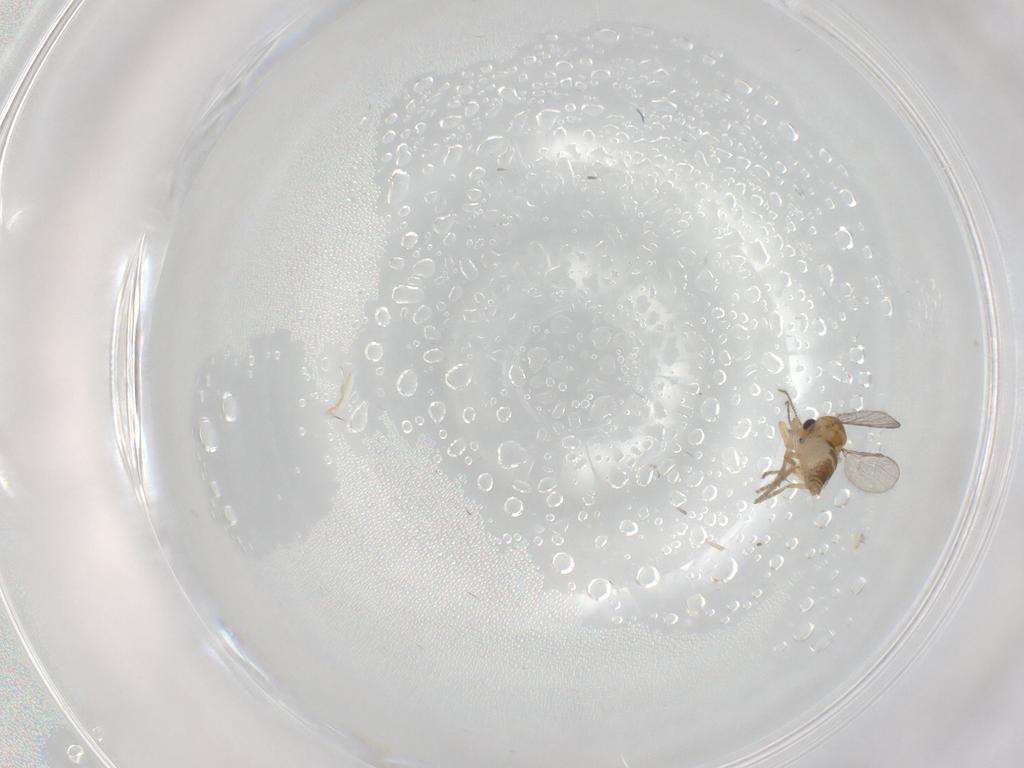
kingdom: Animalia
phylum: Arthropoda
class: Insecta
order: Diptera
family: Ceratopogonidae
